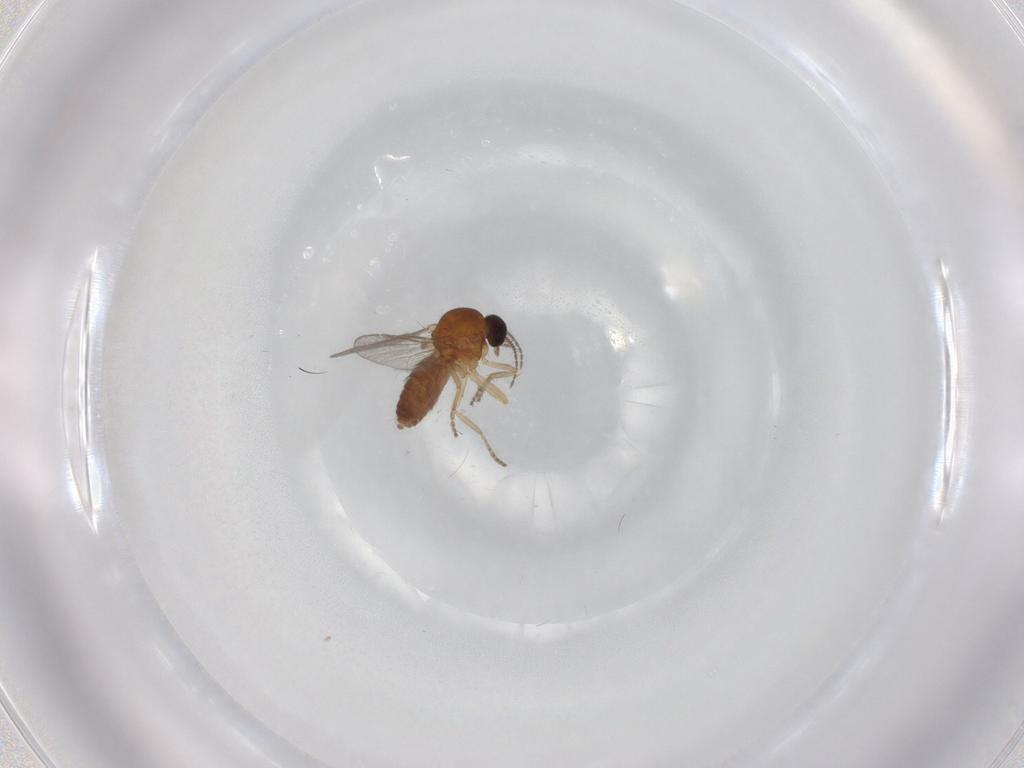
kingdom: Animalia
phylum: Arthropoda
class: Insecta
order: Diptera
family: Ceratopogonidae
